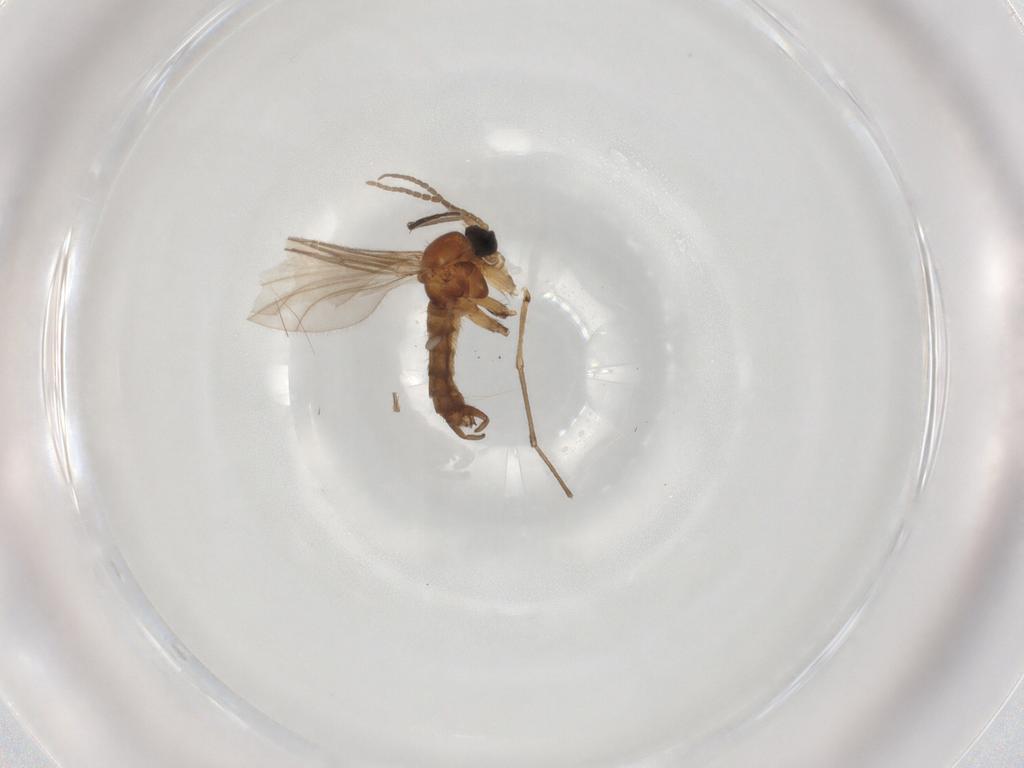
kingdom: Animalia
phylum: Arthropoda
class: Insecta
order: Diptera
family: Sciaridae
